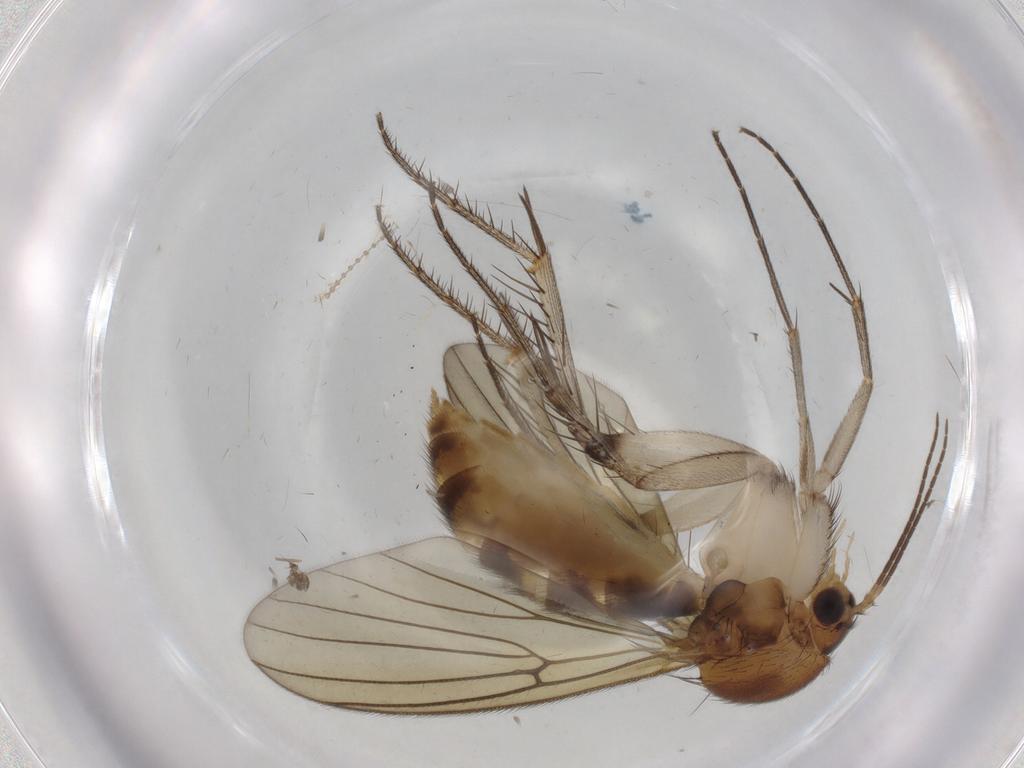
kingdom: Animalia
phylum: Arthropoda
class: Insecta
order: Diptera
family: Mycetophilidae
